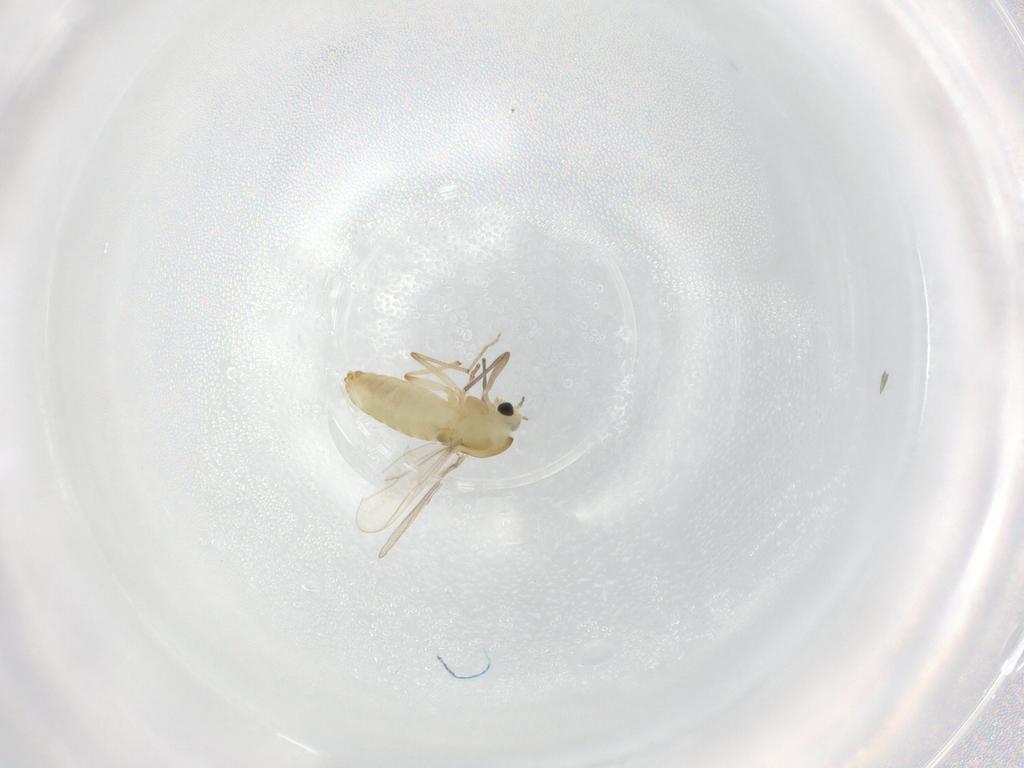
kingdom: Animalia
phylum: Arthropoda
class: Insecta
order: Diptera
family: Chironomidae
